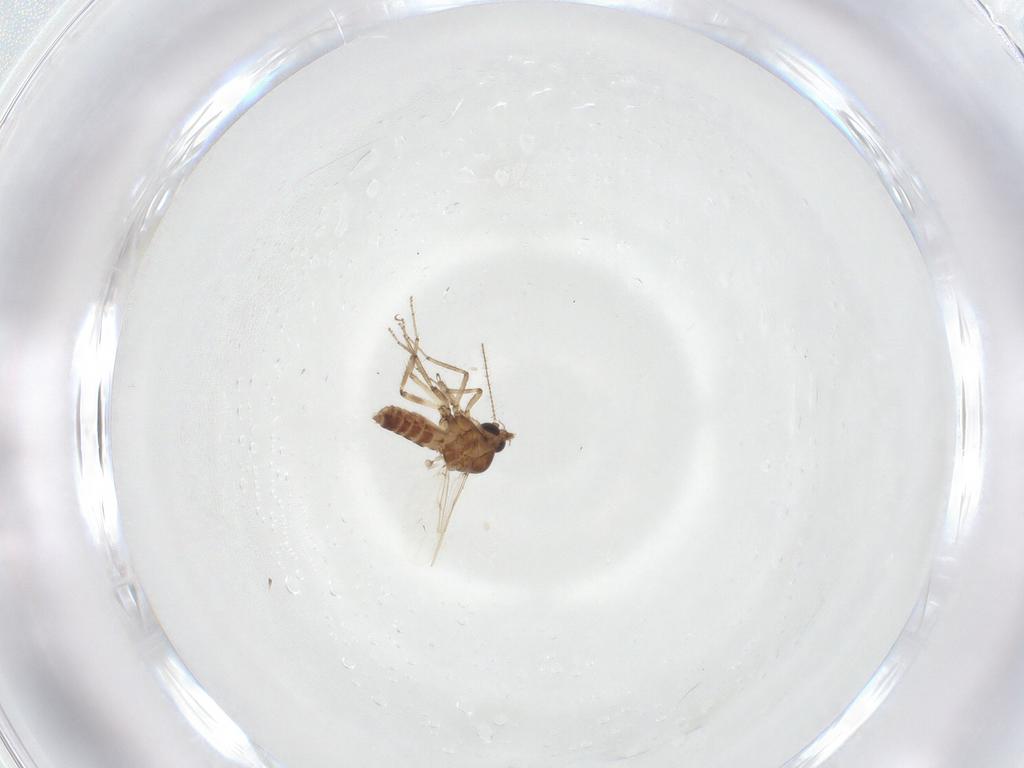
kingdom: Animalia
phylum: Arthropoda
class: Insecta
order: Diptera
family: Ceratopogonidae
